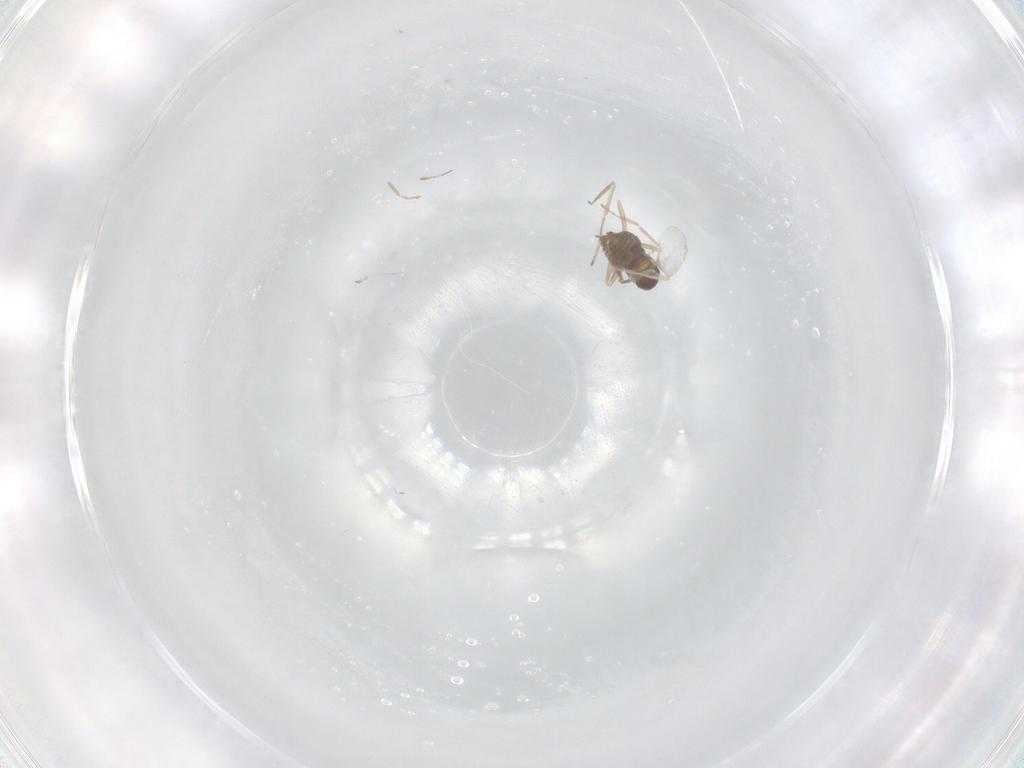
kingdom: Animalia
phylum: Arthropoda
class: Insecta
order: Diptera
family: Cecidomyiidae
